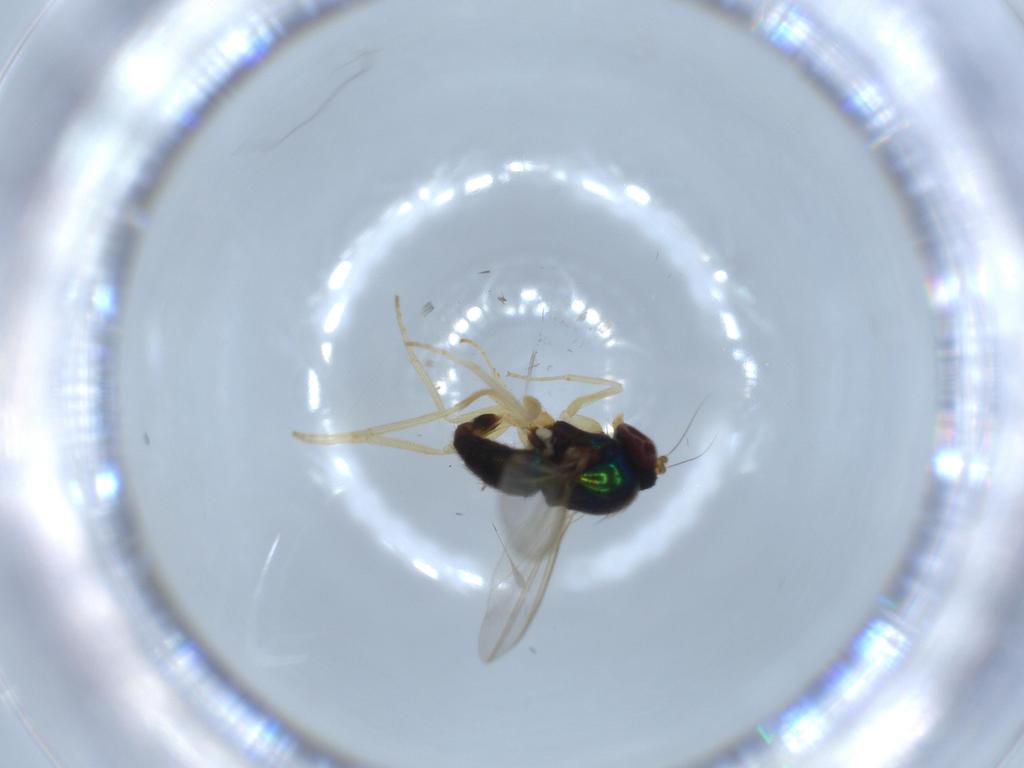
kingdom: Animalia
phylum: Arthropoda
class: Insecta
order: Diptera
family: Dolichopodidae
